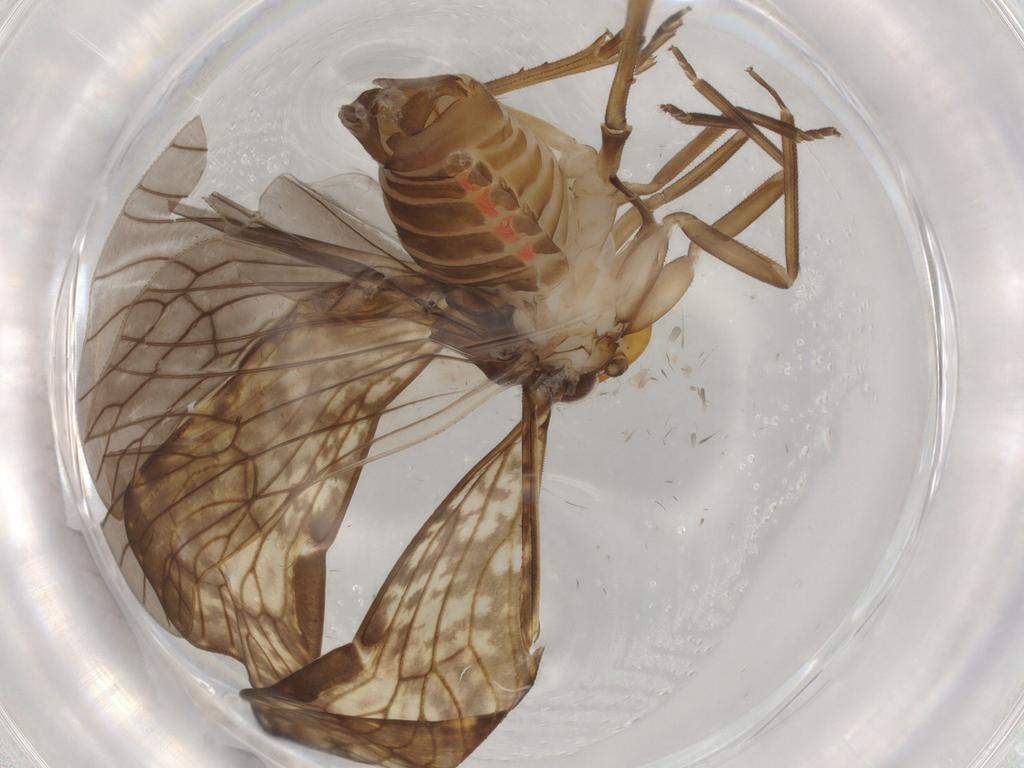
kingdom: Animalia
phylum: Arthropoda
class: Insecta
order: Hemiptera
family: Cixiidae
